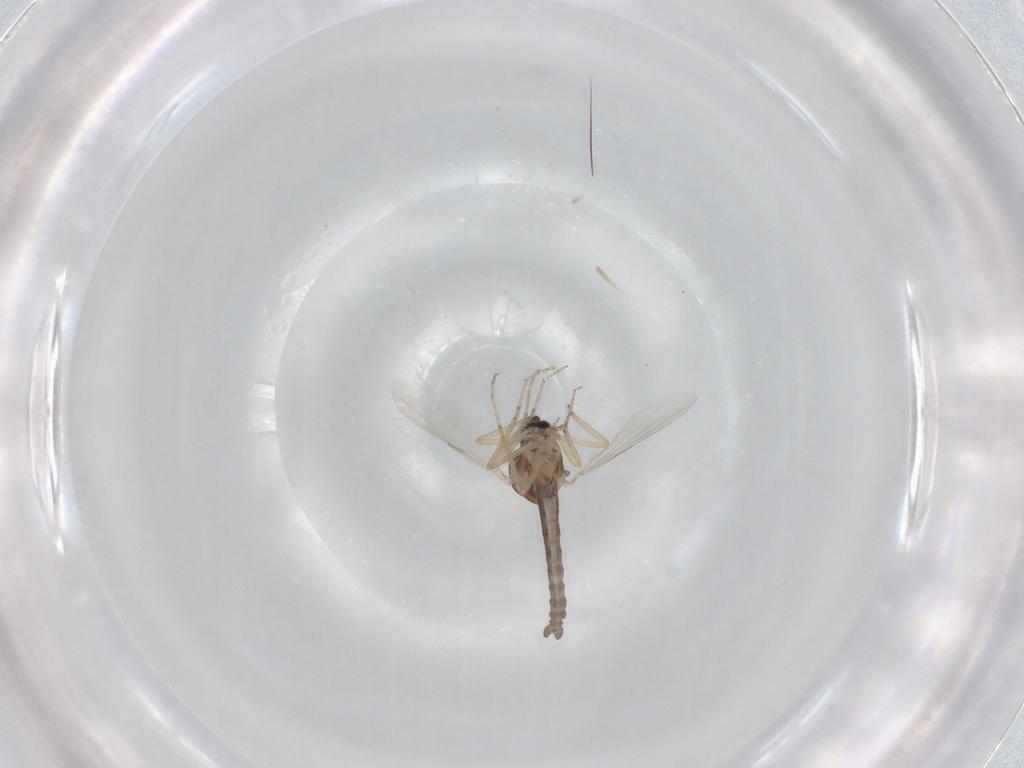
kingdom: Animalia
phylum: Arthropoda
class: Insecta
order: Diptera
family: Ceratopogonidae
